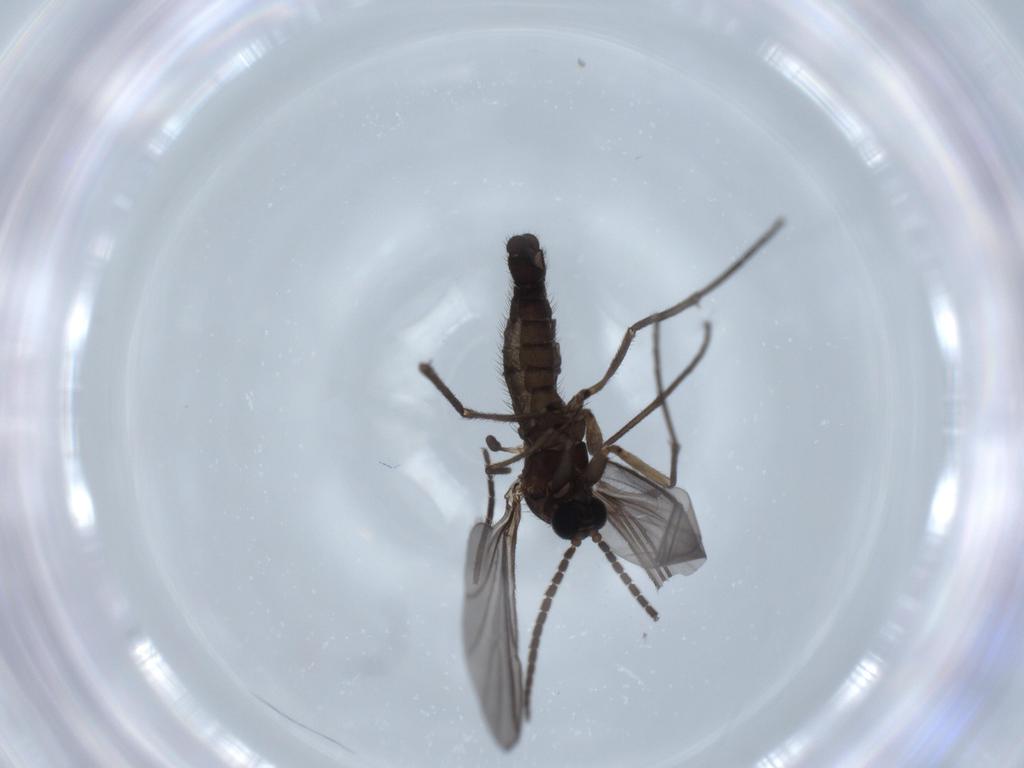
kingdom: Animalia
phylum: Arthropoda
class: Insecta
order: Diptera
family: Sciaridae
